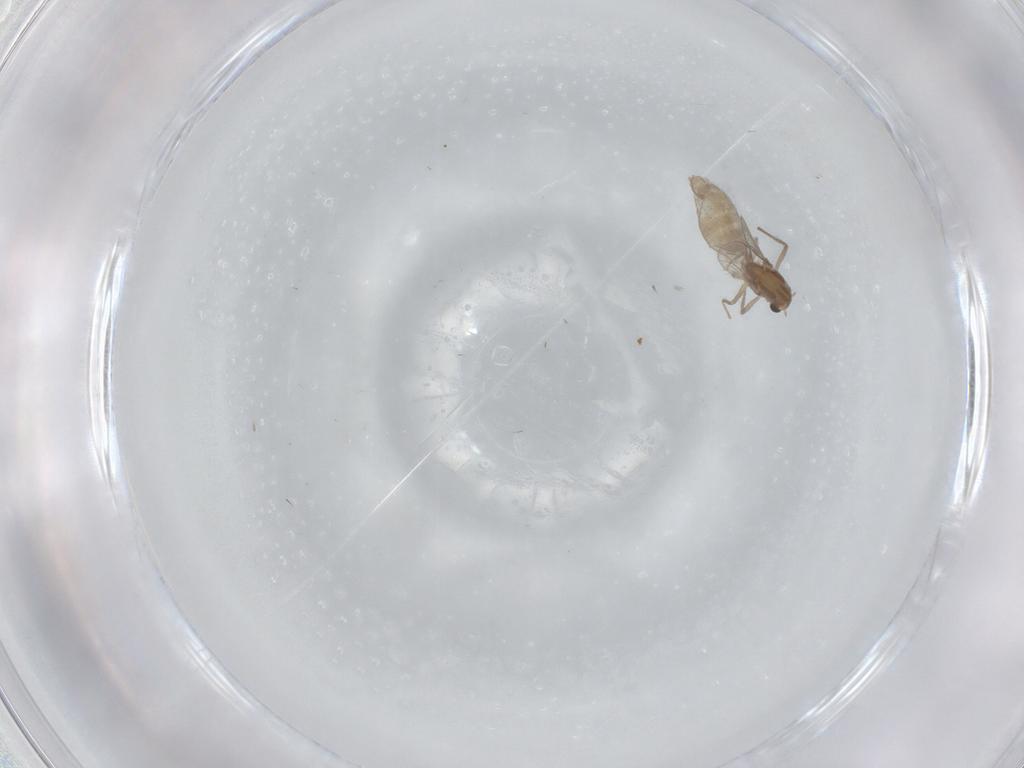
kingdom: Animalia
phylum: Arthropoda
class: Insecta
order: Diptera
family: Chironomidae
